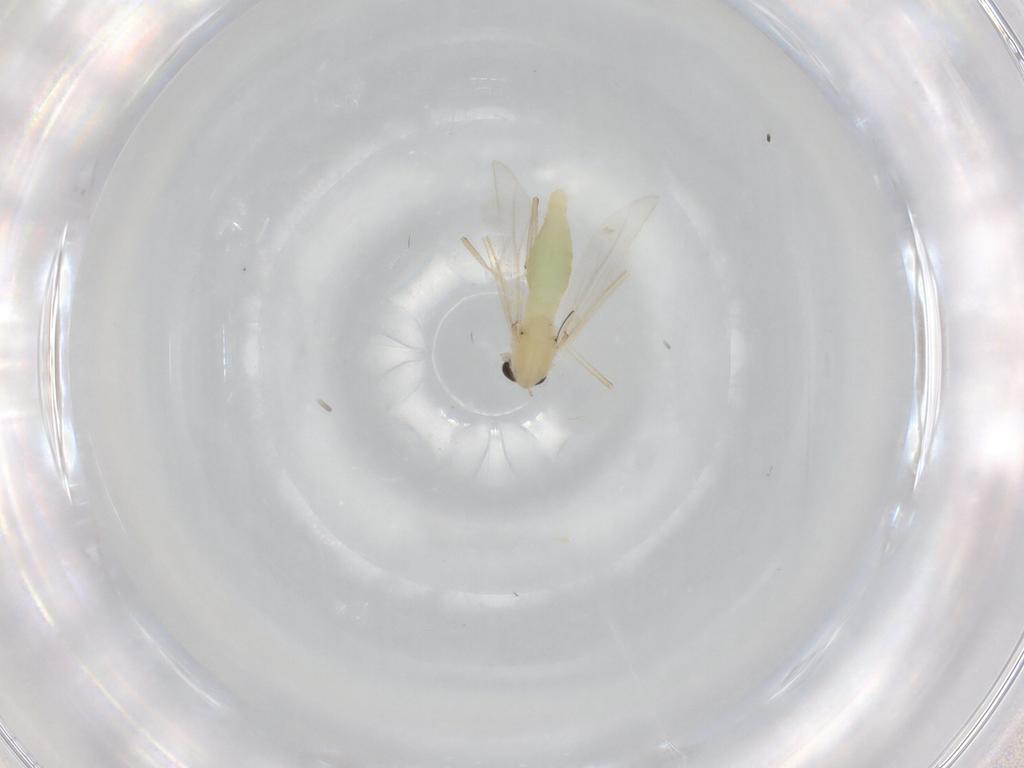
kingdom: Animalia
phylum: Arthropoda
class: Insecta
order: Diptera
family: Chironomidae
